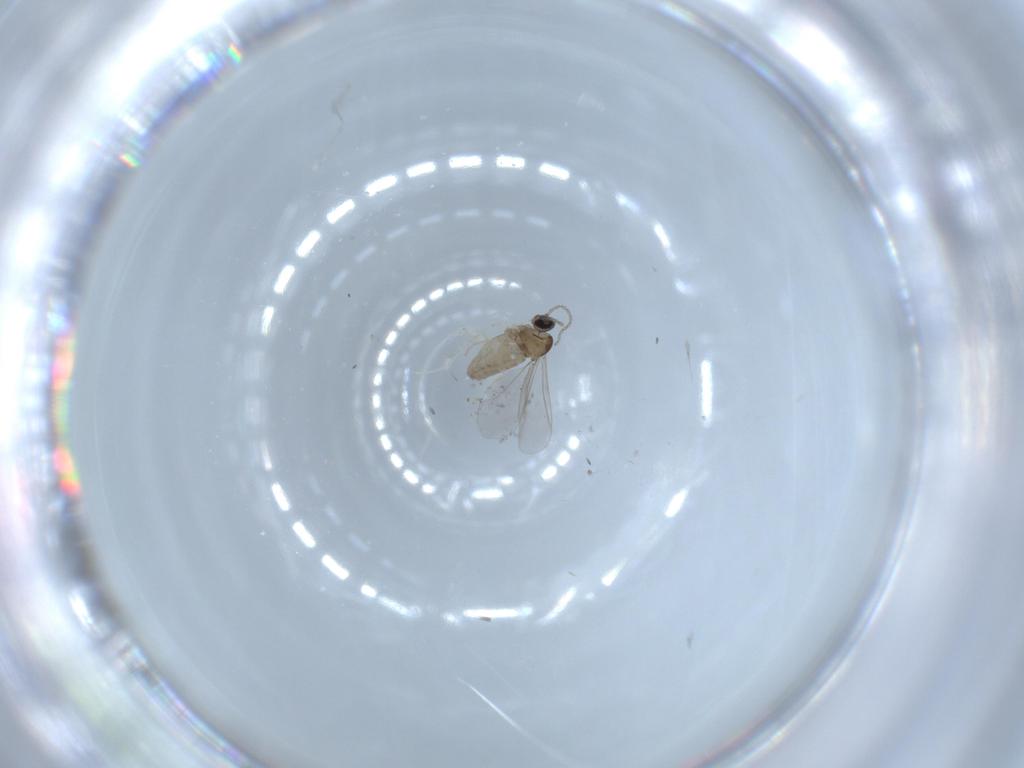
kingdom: Animalia
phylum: Arthropoda
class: Insecta
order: Diptera
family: Cecidomyiidae
